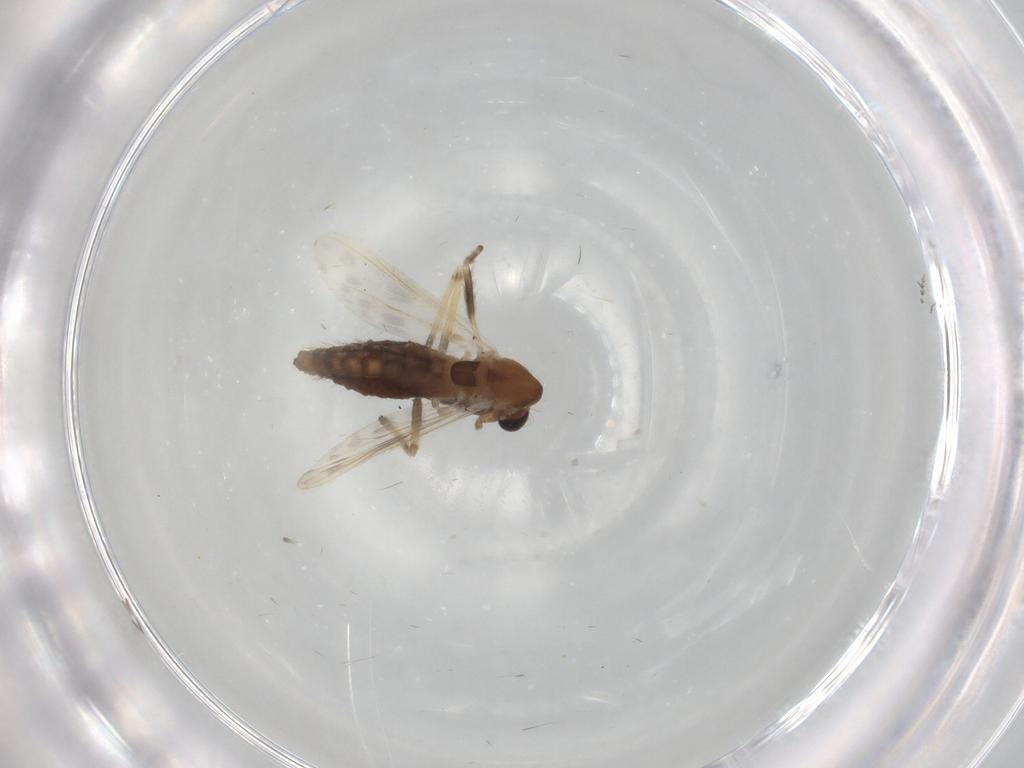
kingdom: Animalia
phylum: Arthropoda
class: Insecta
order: Diptera
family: Chironomidae
